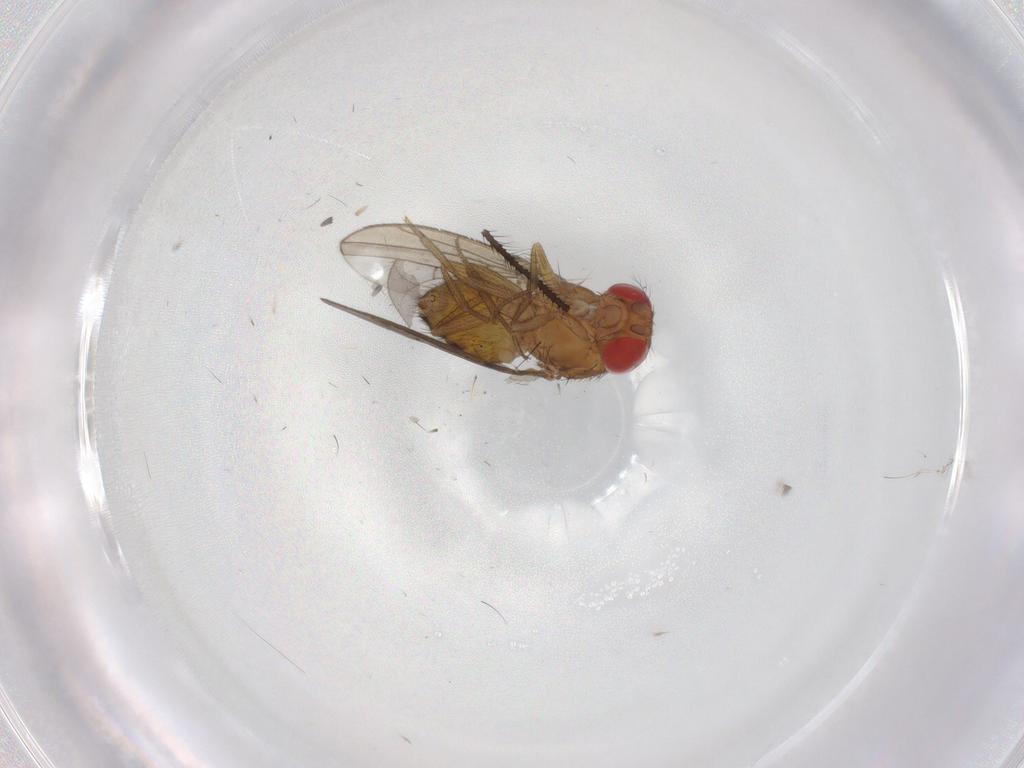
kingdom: Animalia
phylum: Arthropoda
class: Insecta
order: Diptera
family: Drosophilidae
